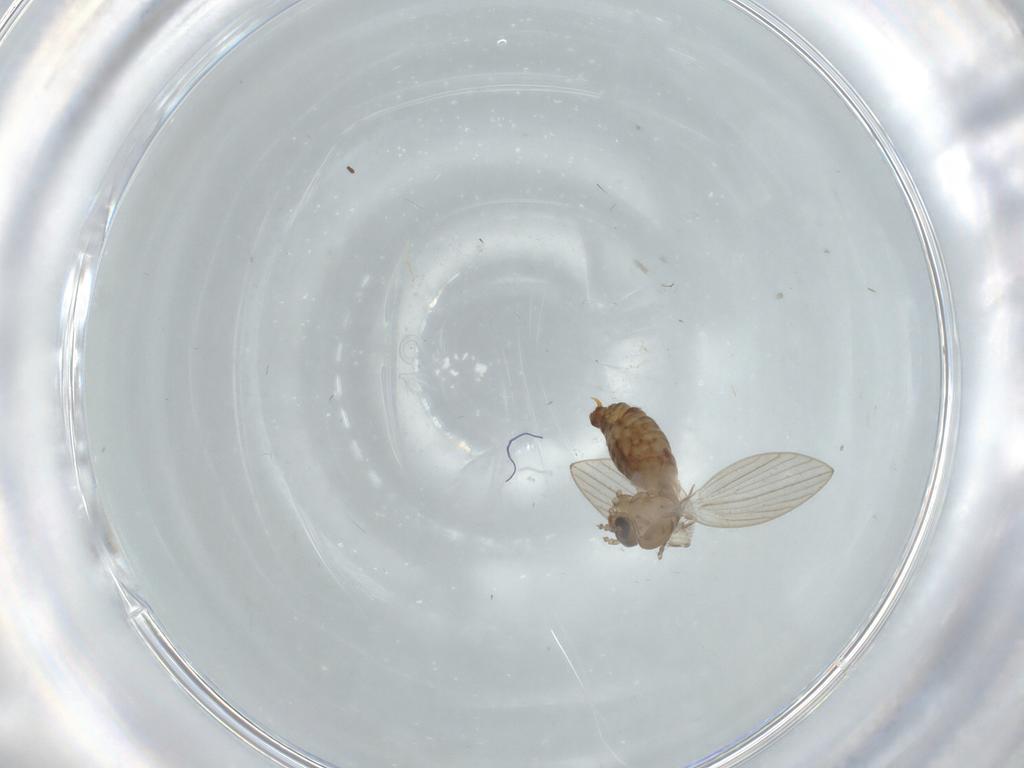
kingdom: Animalia
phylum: Arthropoda
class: Insecta
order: Diptera
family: Psychodidae
